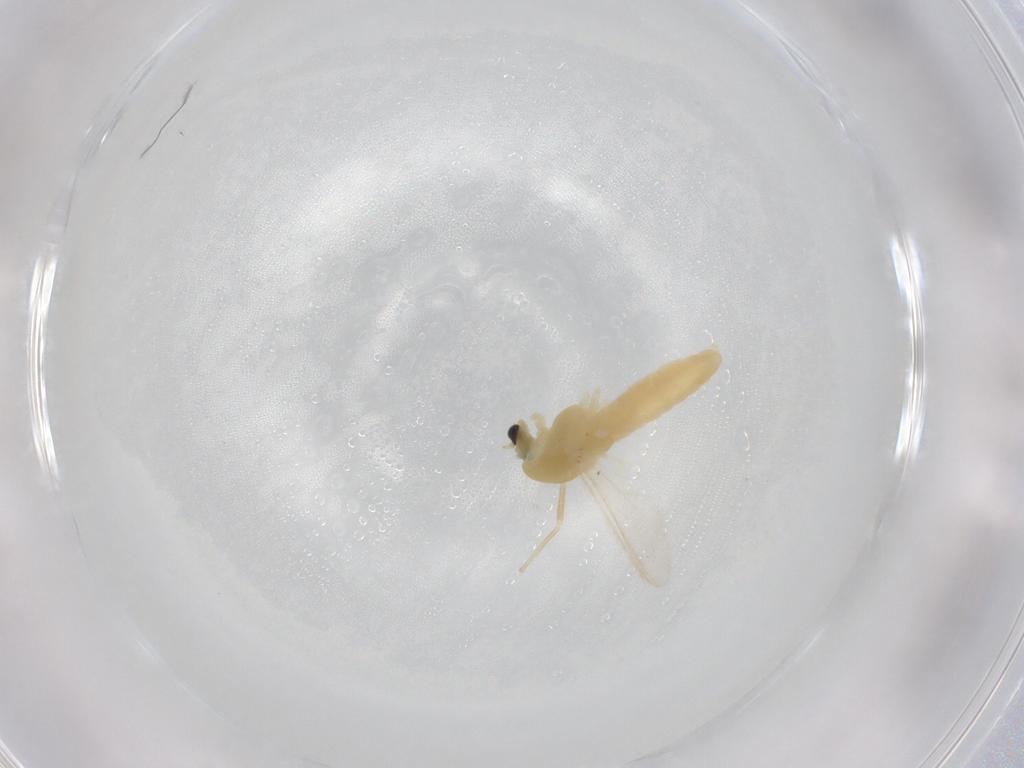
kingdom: Animalia
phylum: Arthropoda
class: Insecta
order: Diptera
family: Chironomidae
